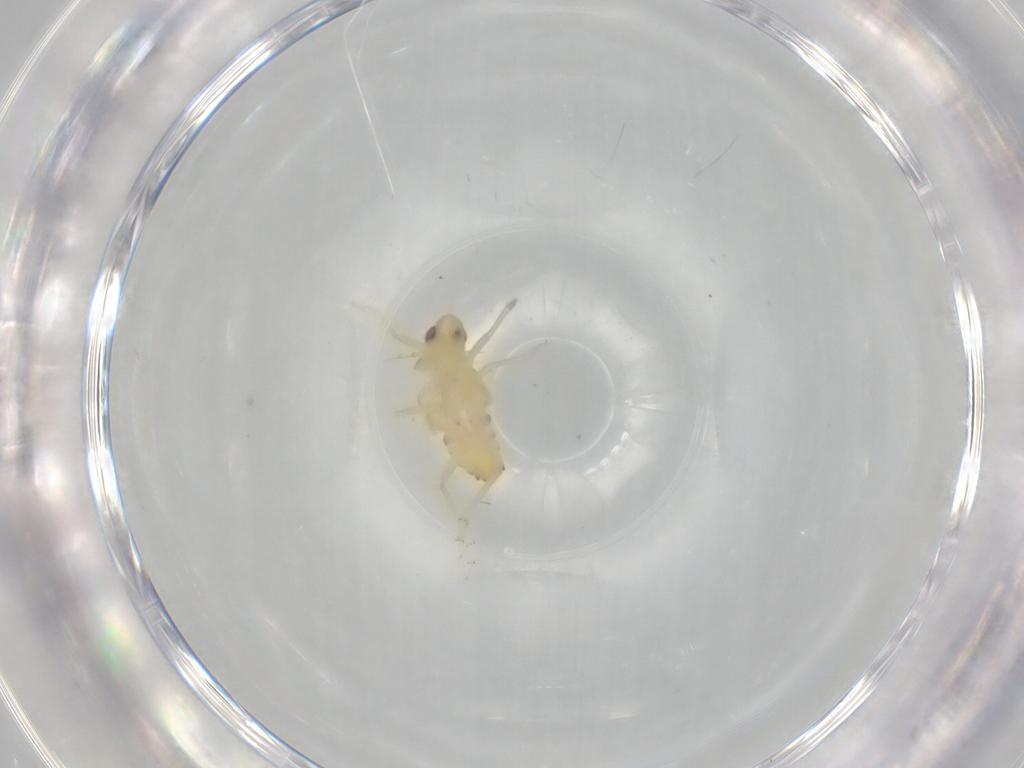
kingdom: Animalia
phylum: Arthropoda
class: Insecta
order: Hemiptera
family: Tropiduchidae
